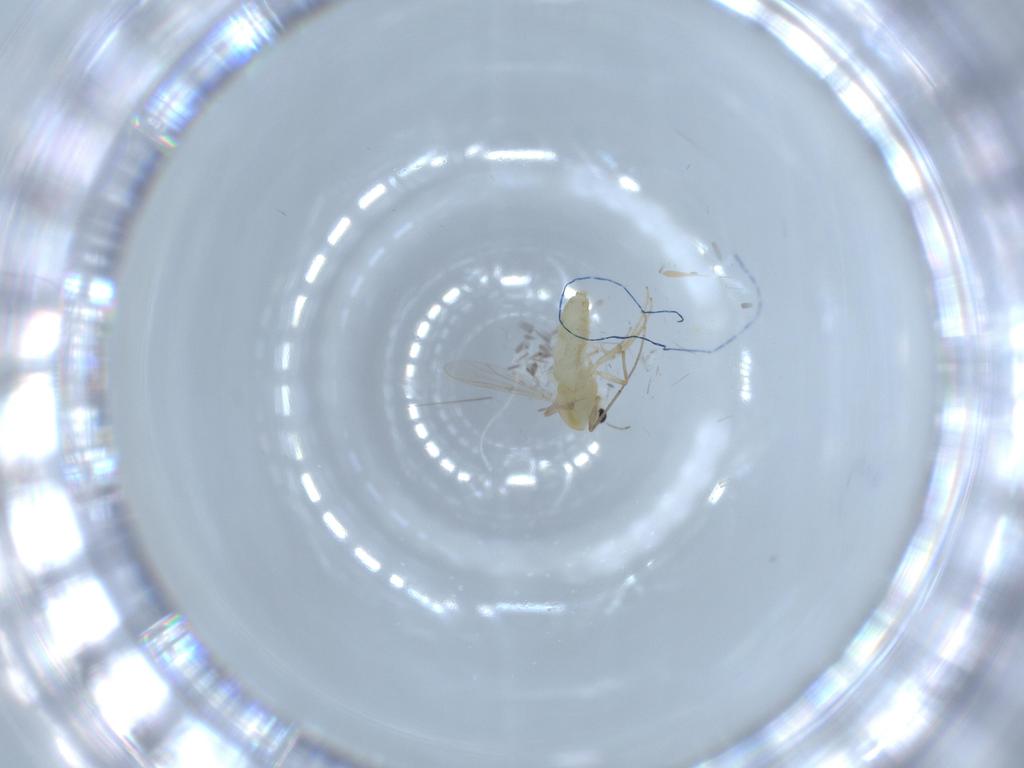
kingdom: Animalia
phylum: Arthropoda
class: Insecta
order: Diptera
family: Chironomidae
